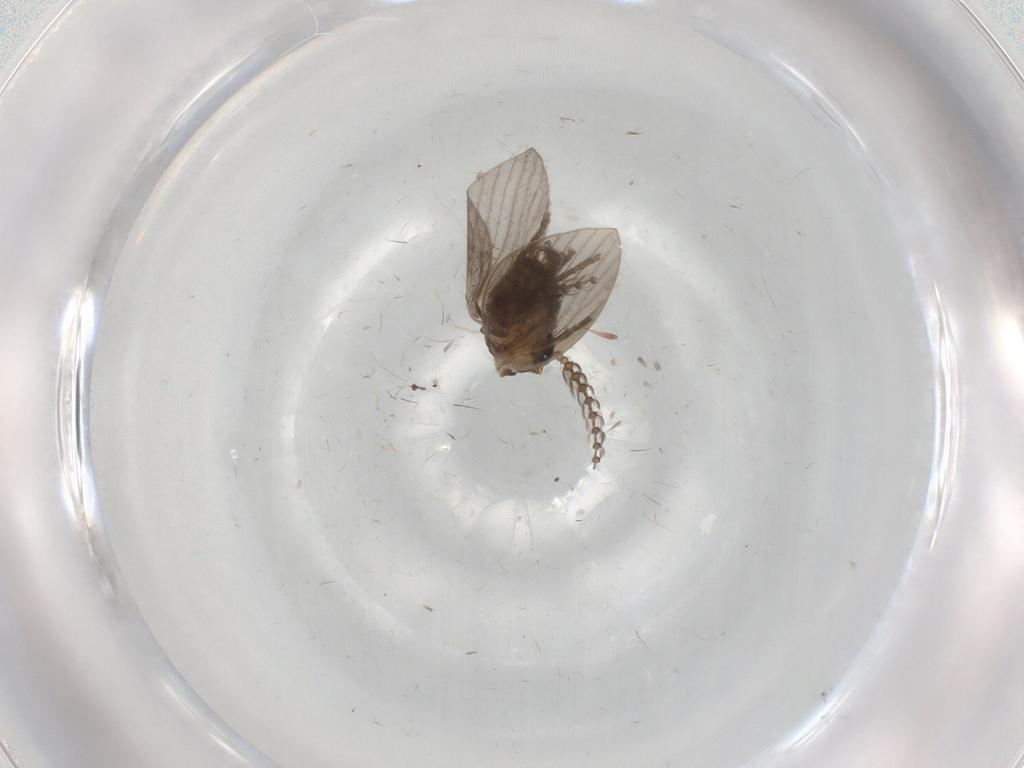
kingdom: Animalia
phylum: Arthropoda
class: Insecta
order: Diptera
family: Psychodidae
